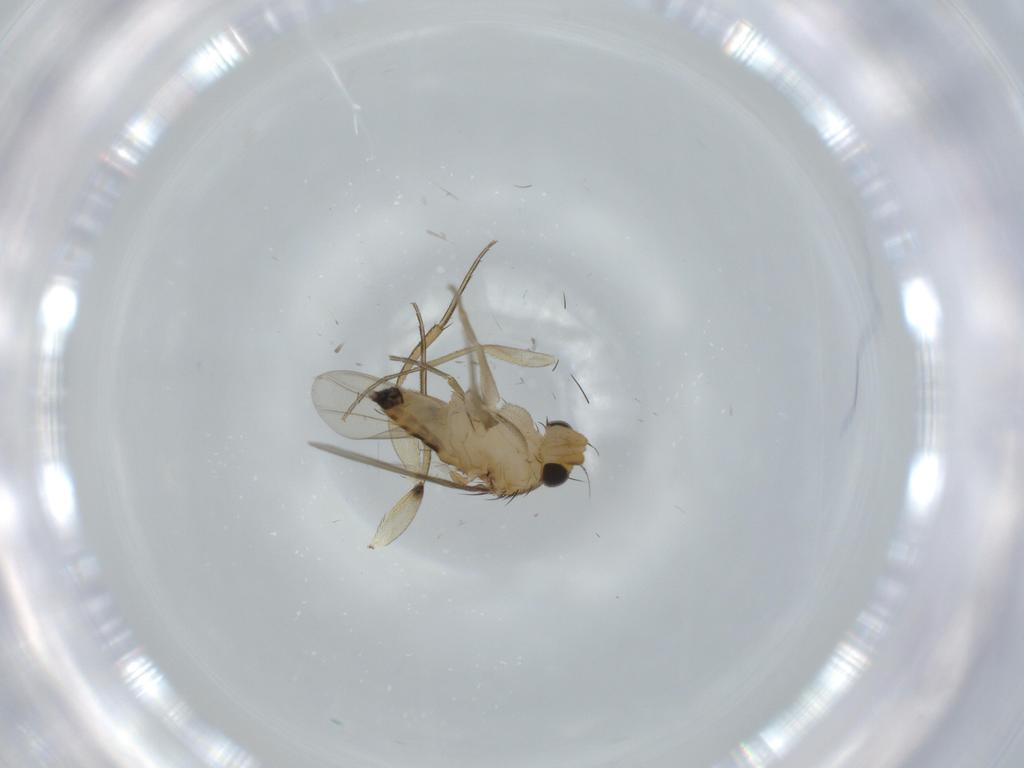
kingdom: Animalia
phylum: Arthropoda
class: Insecta
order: Diptera
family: Phoridae
